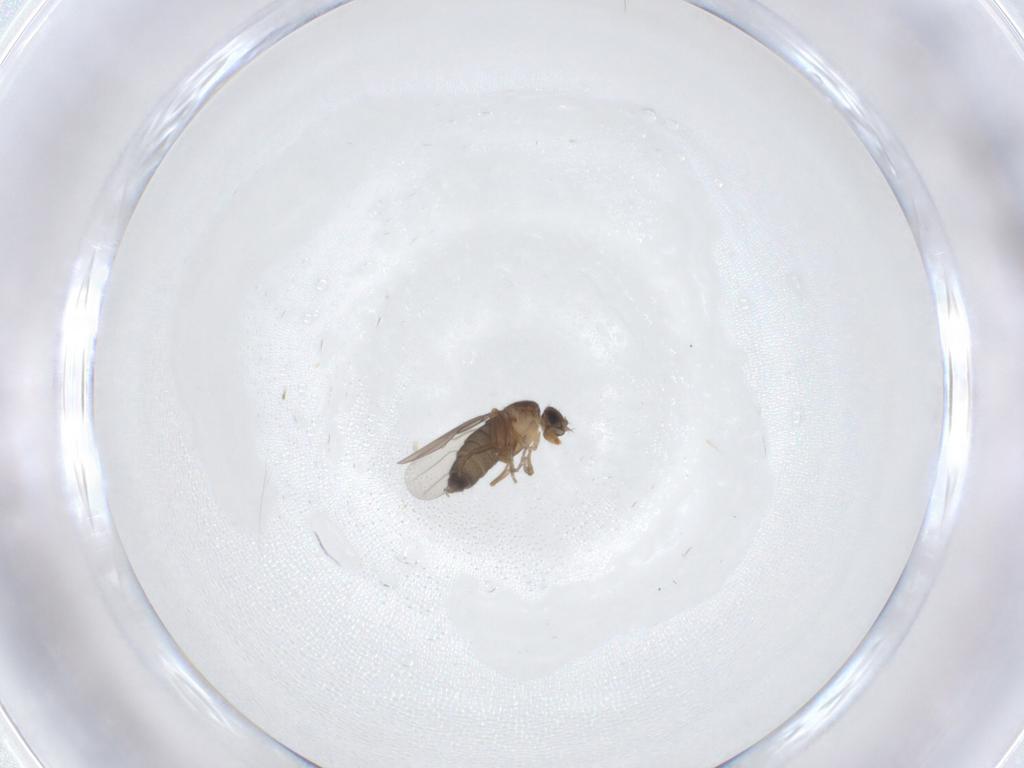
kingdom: Animalia
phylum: Arthropoda
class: Insecta
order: Diptera
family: Phoridae
